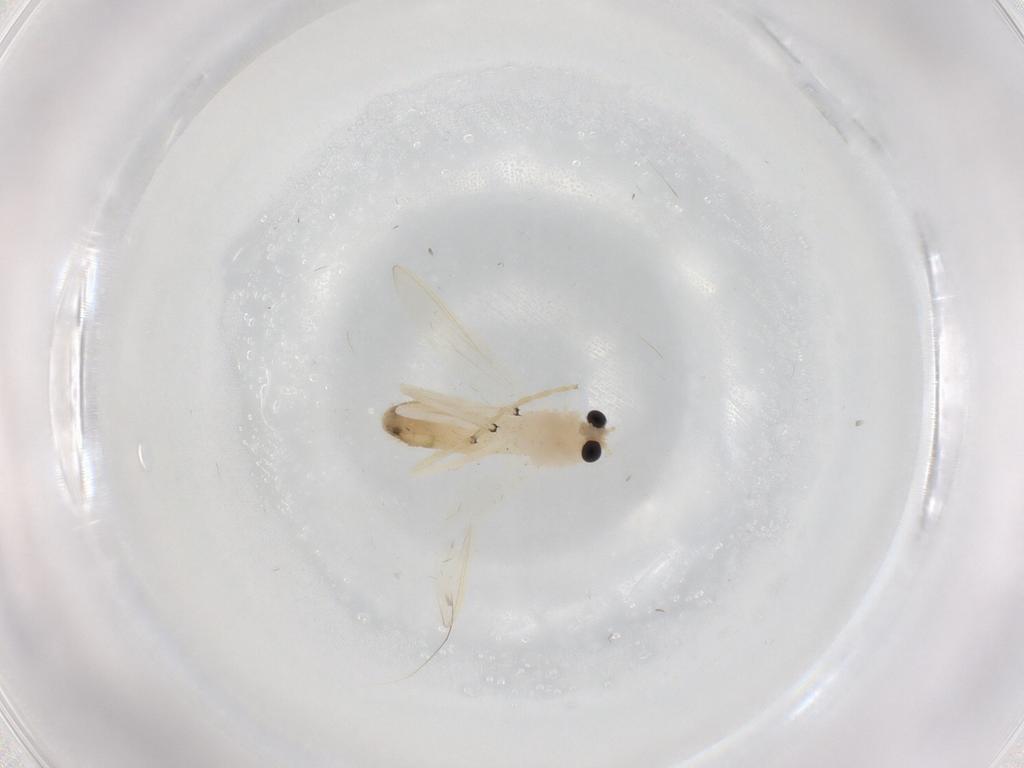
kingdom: Animalia
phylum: Arthropoda
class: Insecta
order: Diptera
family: Chironomidae
